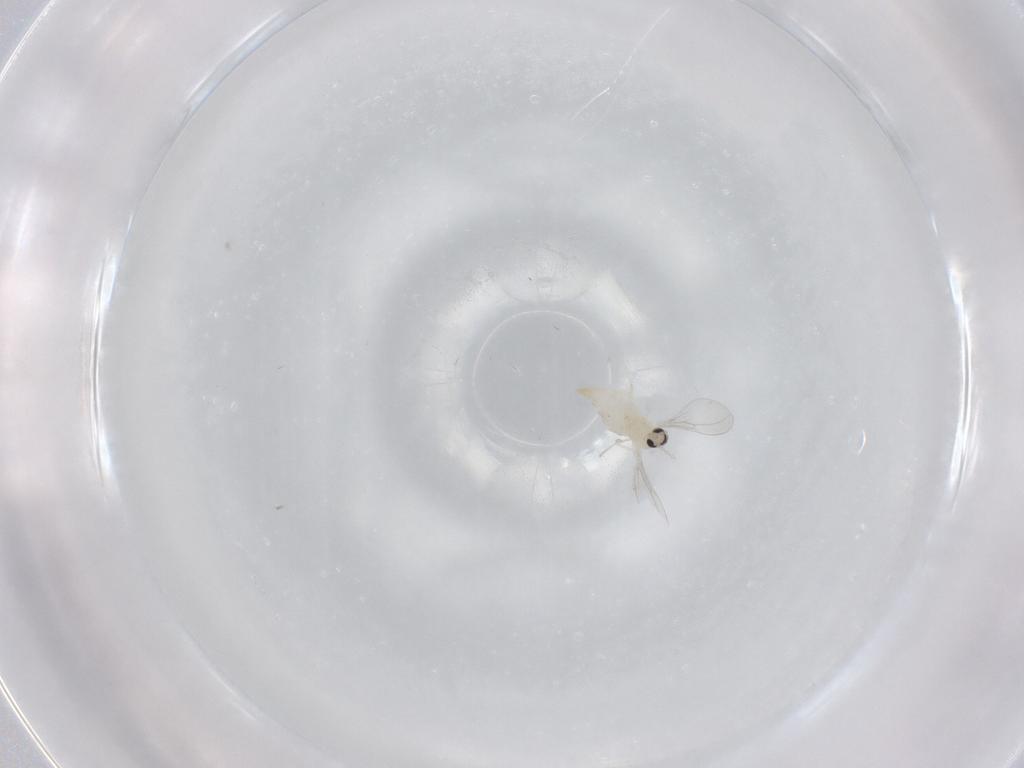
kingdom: Animalia
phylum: Arthropoda
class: Insecta
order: Diptera
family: Cecidomyiidae
